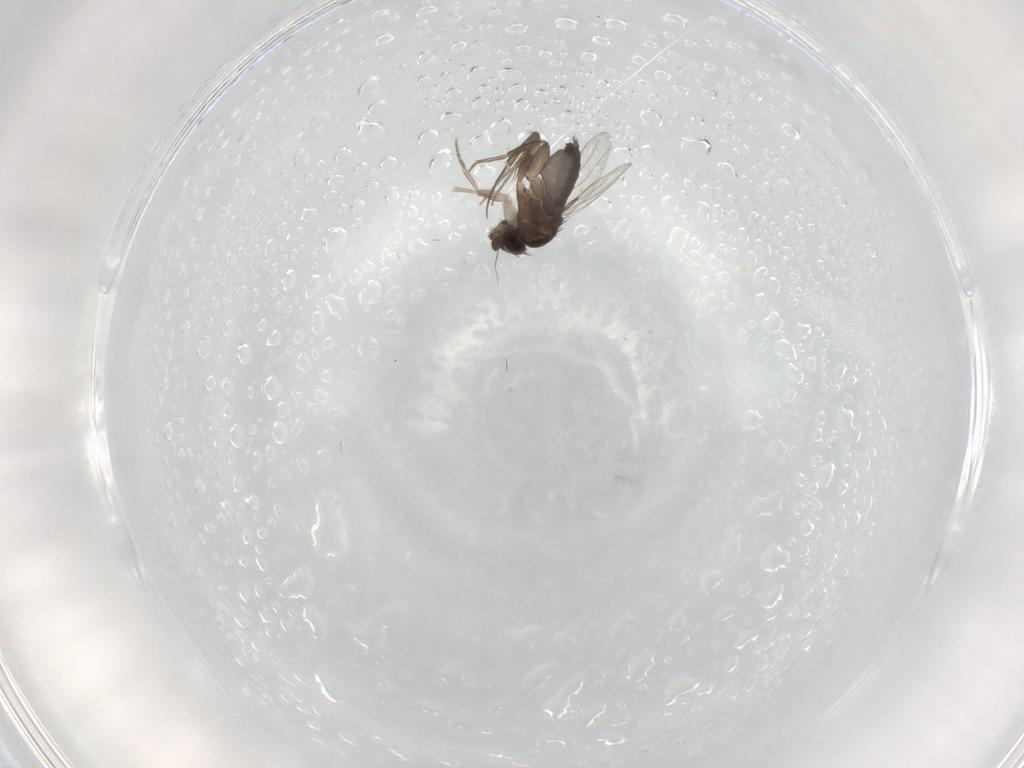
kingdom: Animalia
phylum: Arthropoda
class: Insecta
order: Diptera
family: Phoridae
